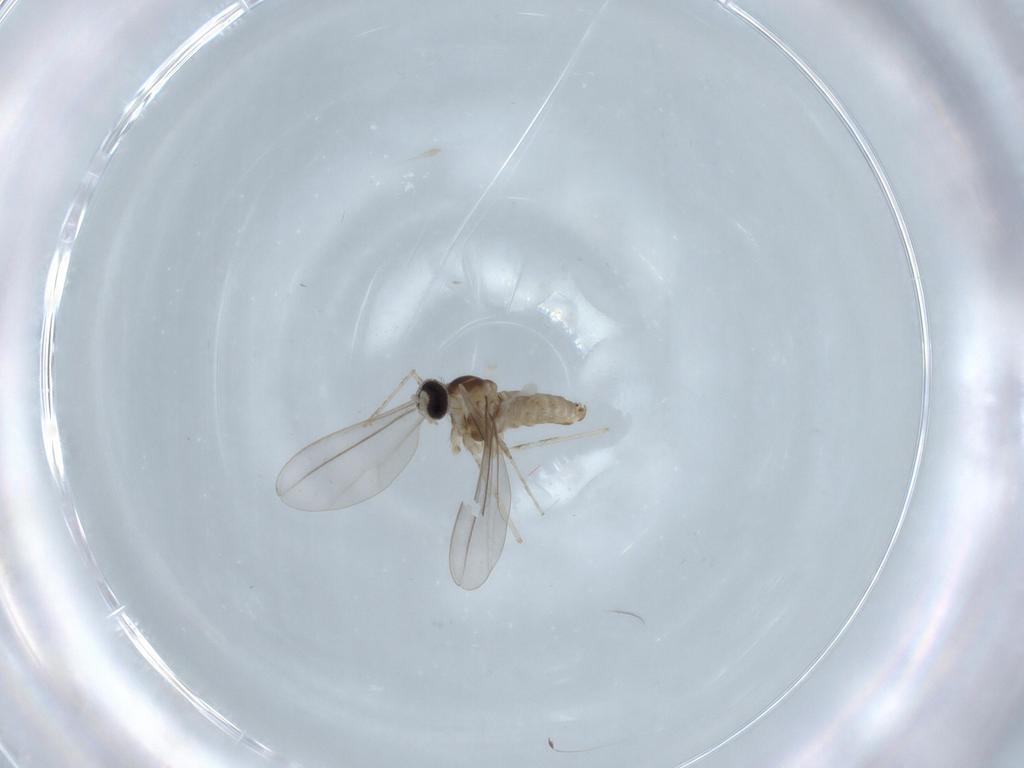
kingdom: Animalia
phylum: Arthropoda
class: Insecta
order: Diptera
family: Cecidomyiidae
